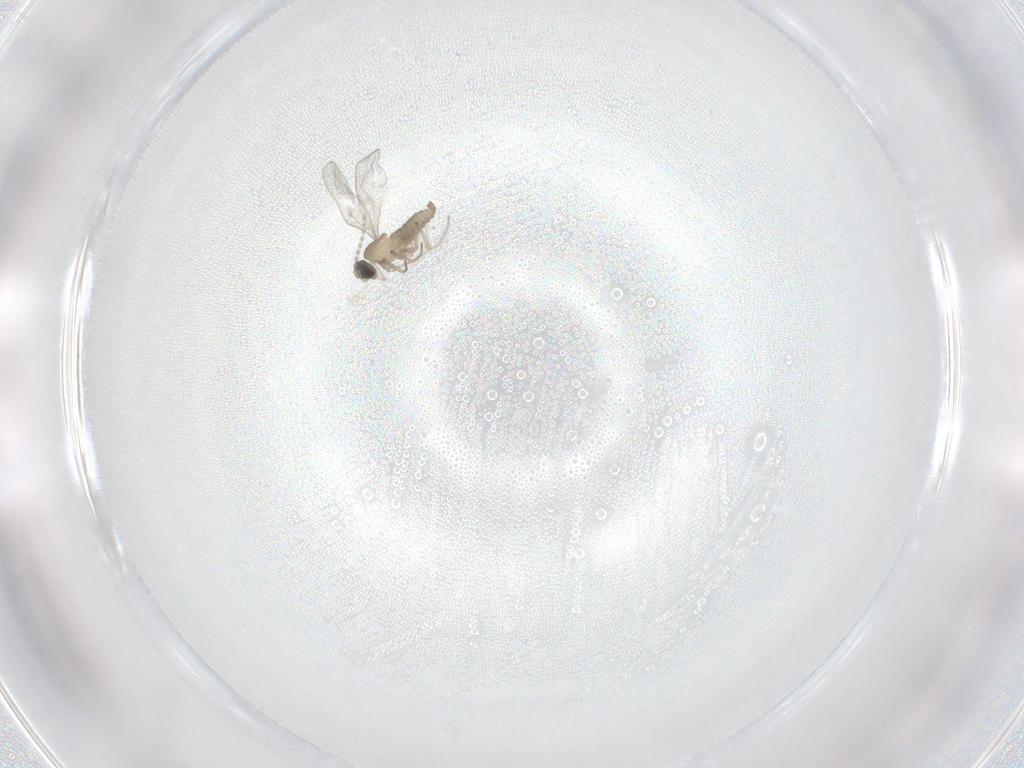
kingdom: Animalia
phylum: Arthropoda
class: Insecta
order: Diptera
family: Cecidomyiidae
